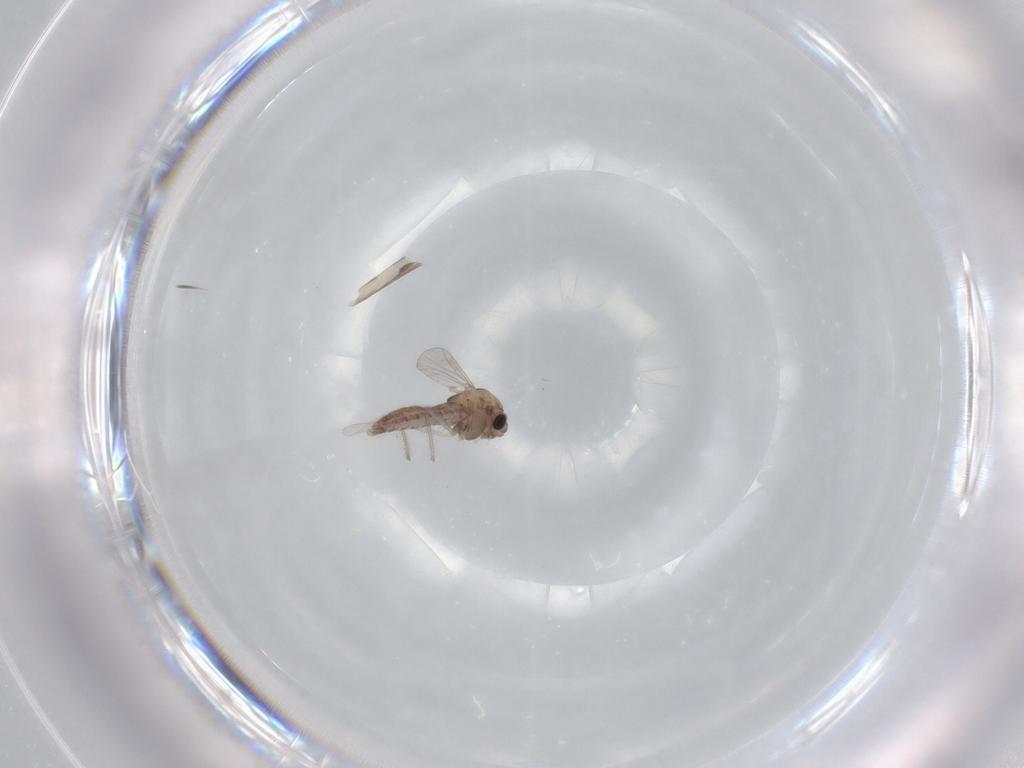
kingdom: Animalia
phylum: Arthropoda
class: Insecta
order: Diptera
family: Chironomidae
